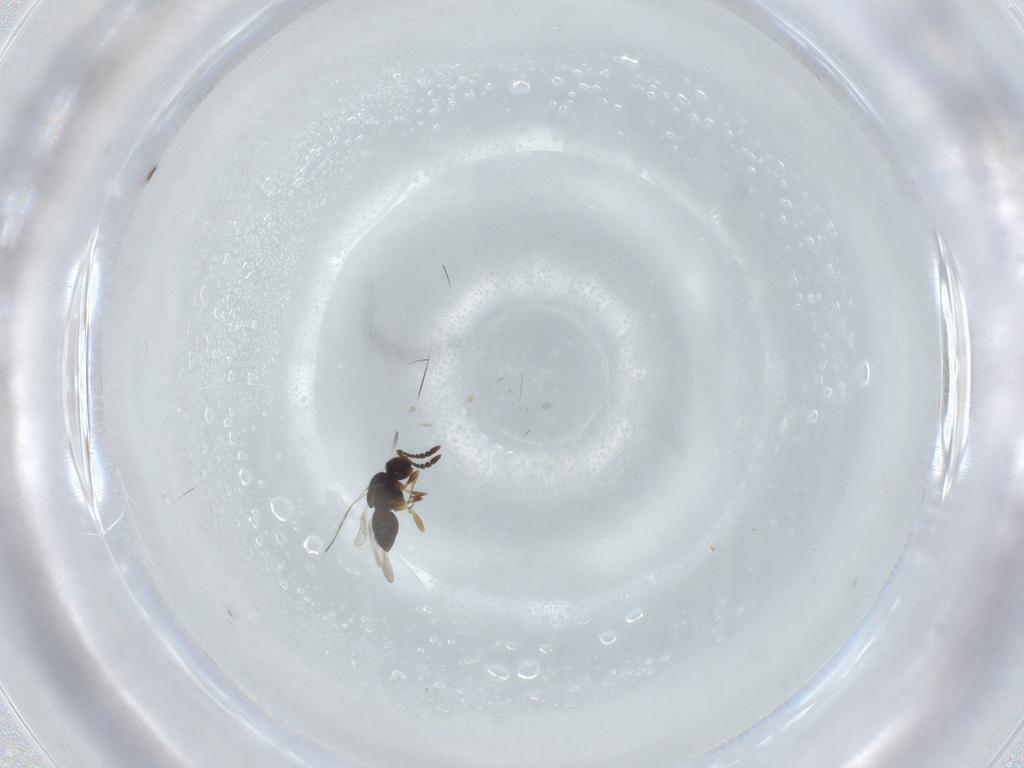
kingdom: Animalia
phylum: Arthropoda
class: Insecta
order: Hymenoptera
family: Ceraphronidae
